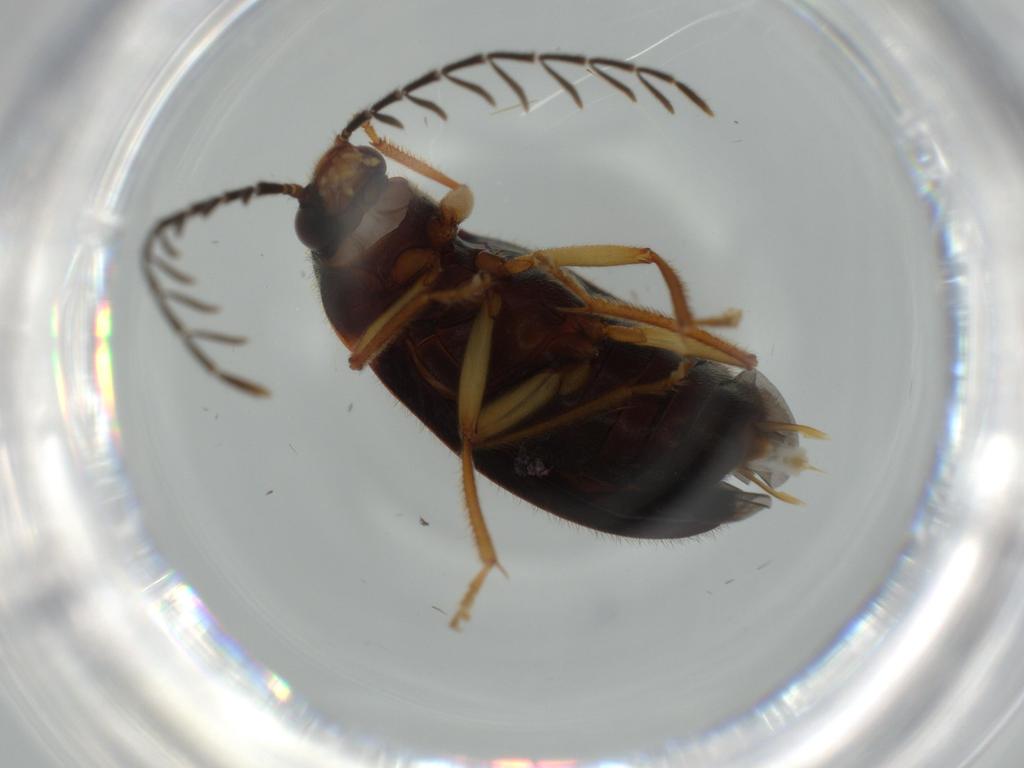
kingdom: Animalia
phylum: Arthropoda
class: Insecta
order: Coleoptera
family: Ptilodactylidae
